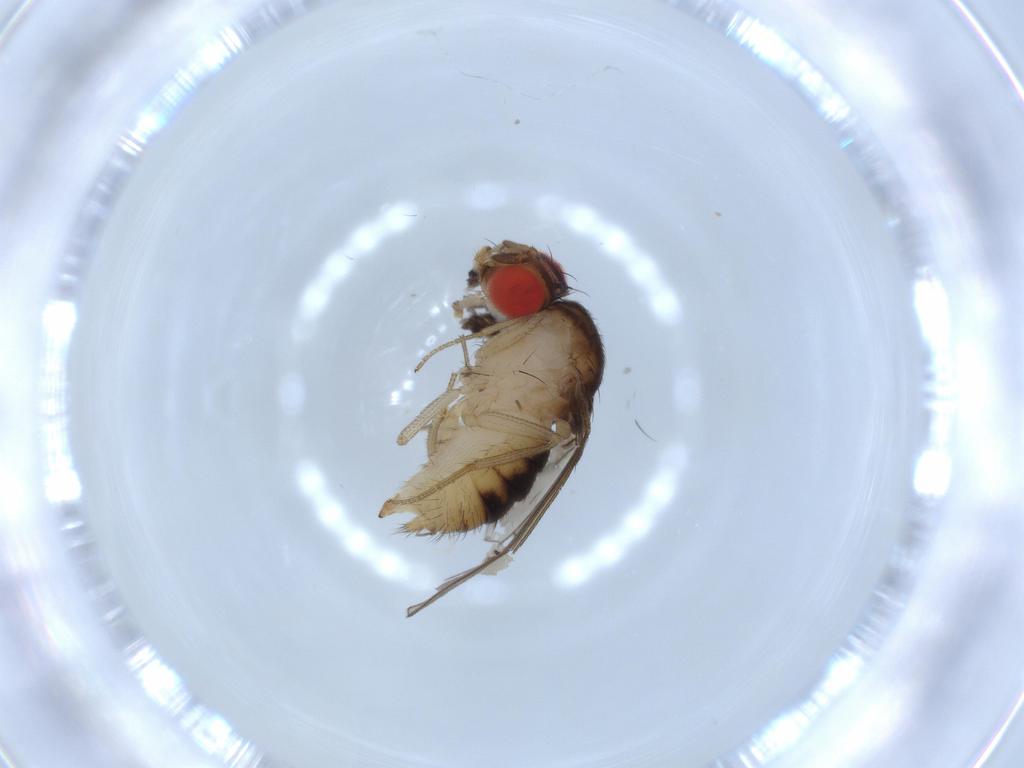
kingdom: Animalia
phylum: Arthropoda
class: Insecta
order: Diptera
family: Drosophilidae
